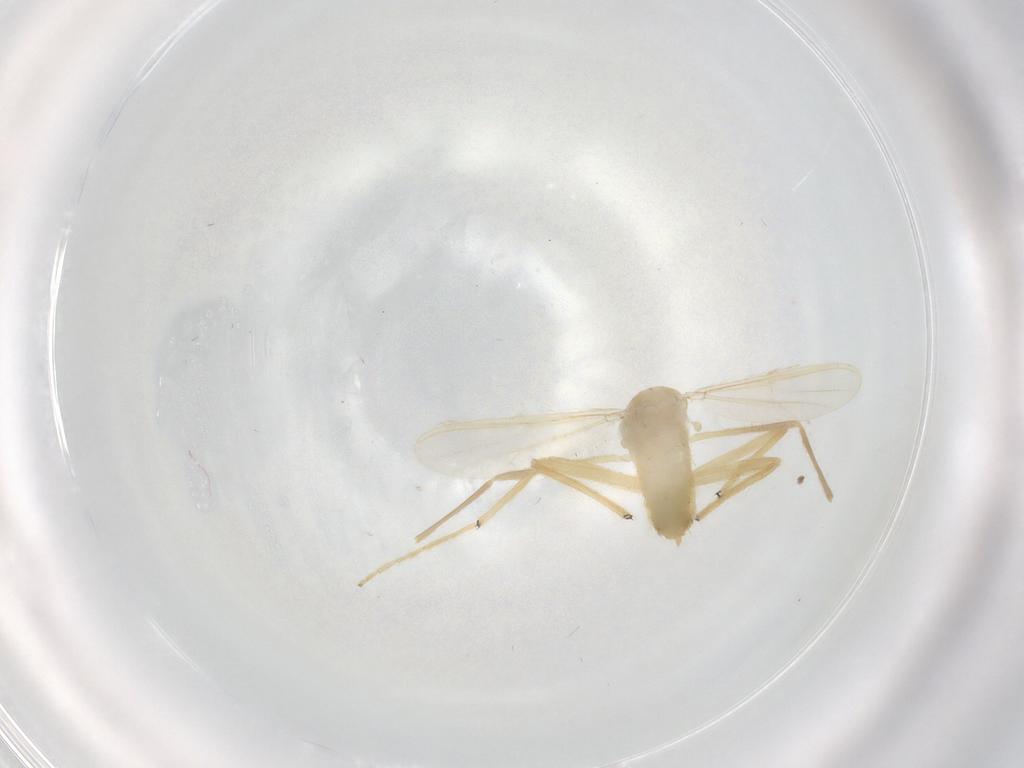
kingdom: Animalia
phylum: Arthropoda
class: Insecta
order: Diptera
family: Chironomidae
